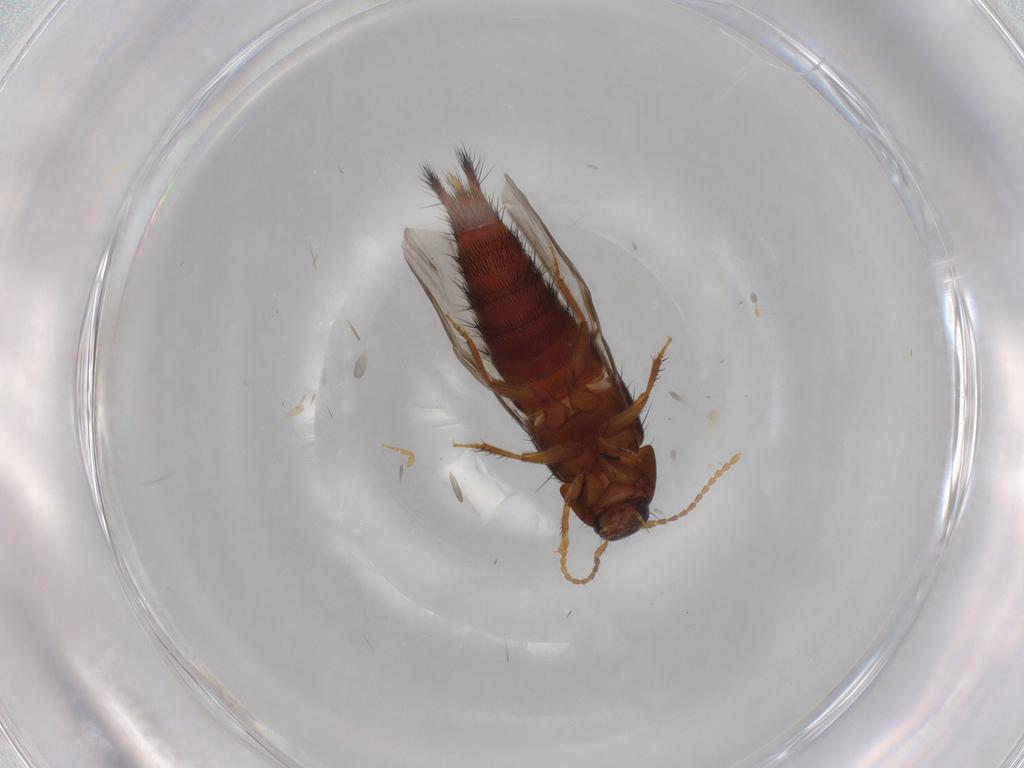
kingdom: Animalia
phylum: Arthropoda
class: Insecta
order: Coleoptera
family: Staphylinidae
